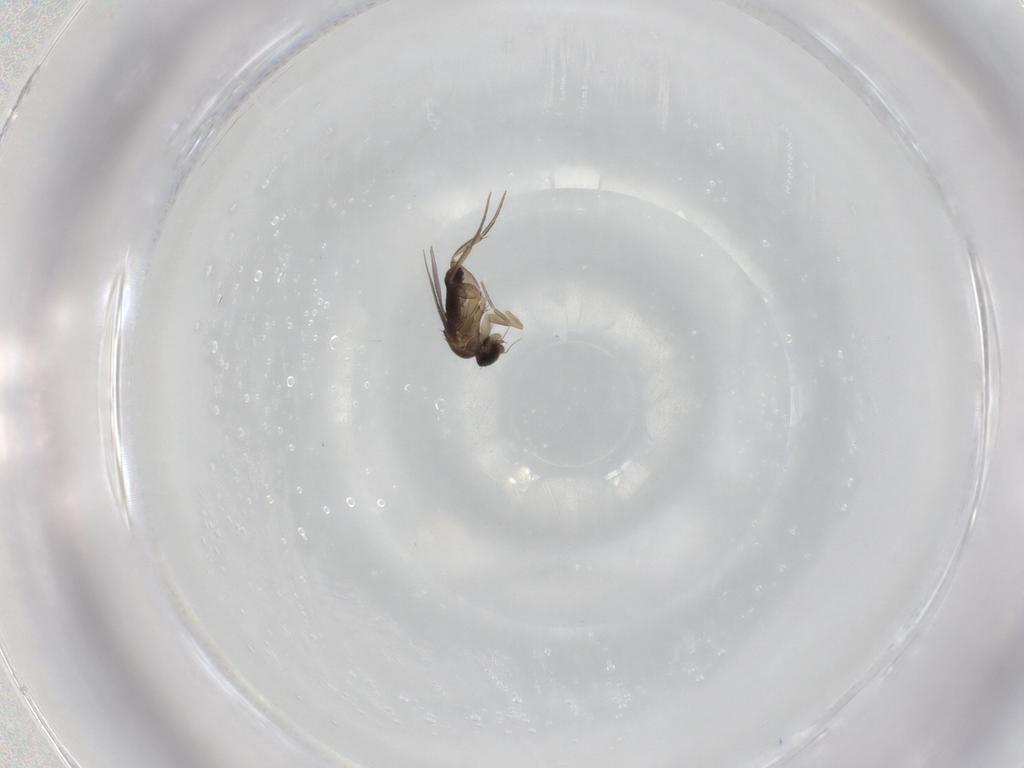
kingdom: Animalia
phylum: Arthropoda
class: Insecta
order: Diptera
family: Phoridae
